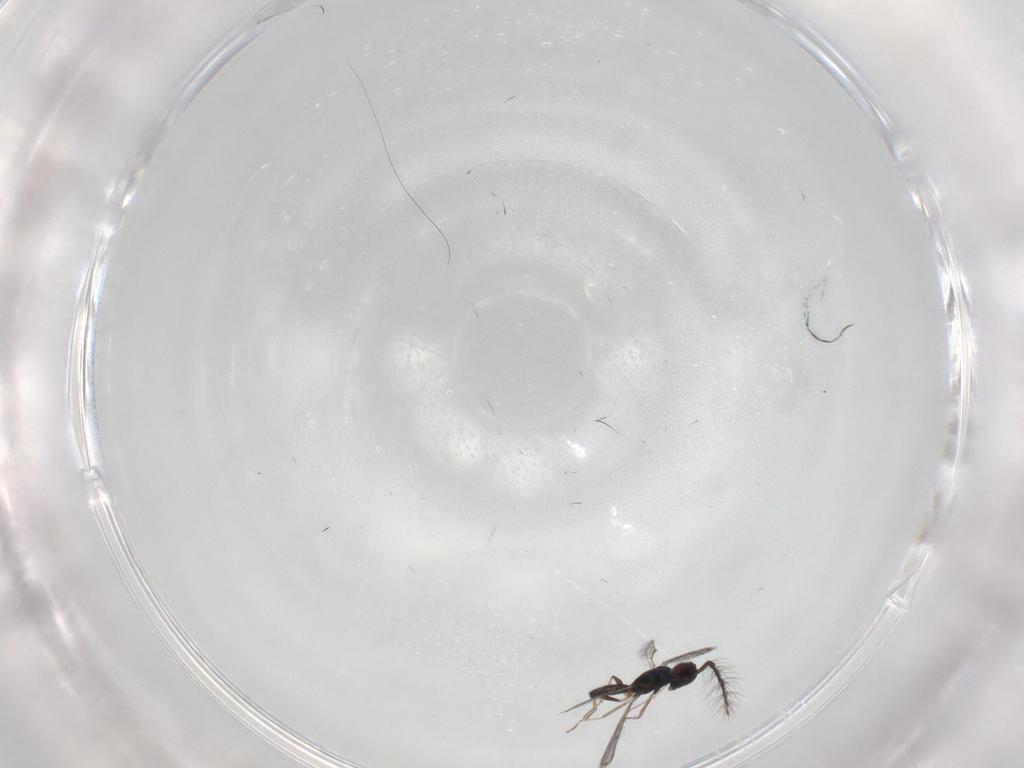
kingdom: Animalia
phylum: Arthropoda
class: Insecta
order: Hymenoptera
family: Eulophidae
